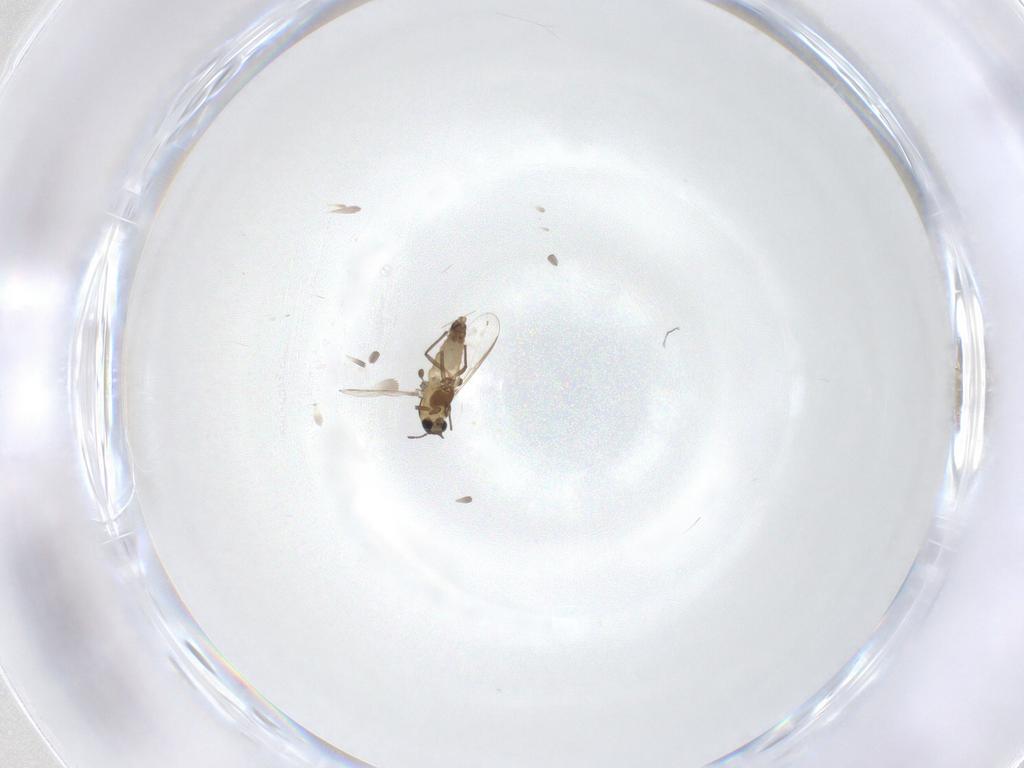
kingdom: Animalia
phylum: Arthropoda
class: Insecta
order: Diptera
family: Chironomidae
